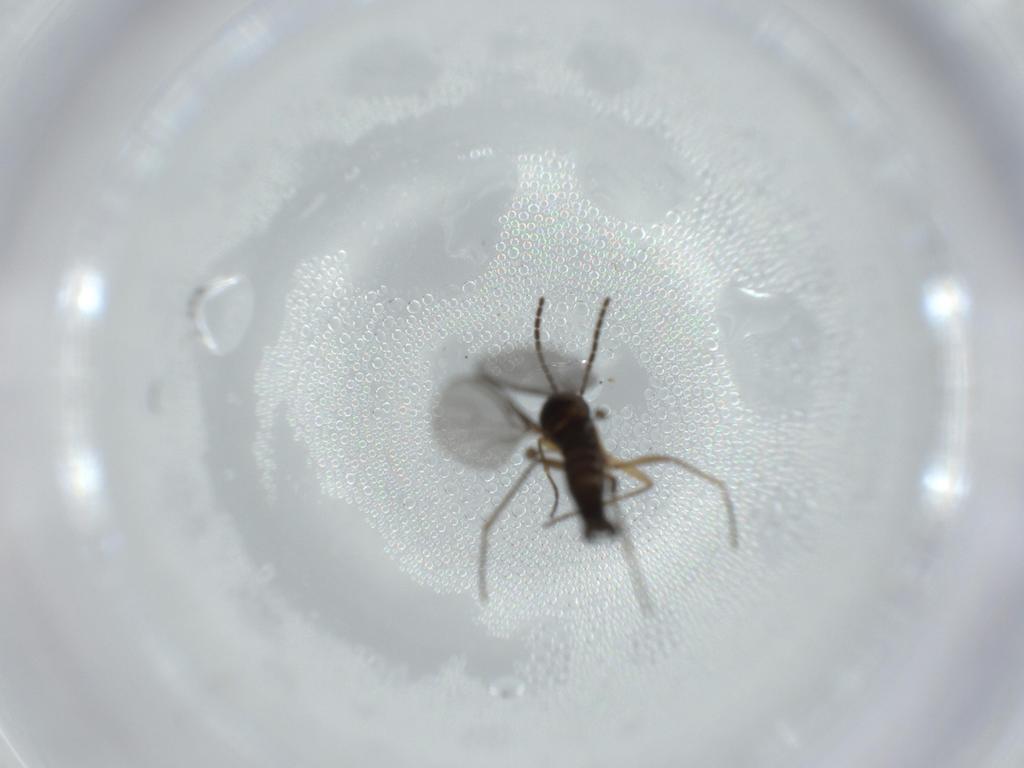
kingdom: Animalia
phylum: Arthropoda
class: Insecta
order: Diptera
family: Sciaridae
